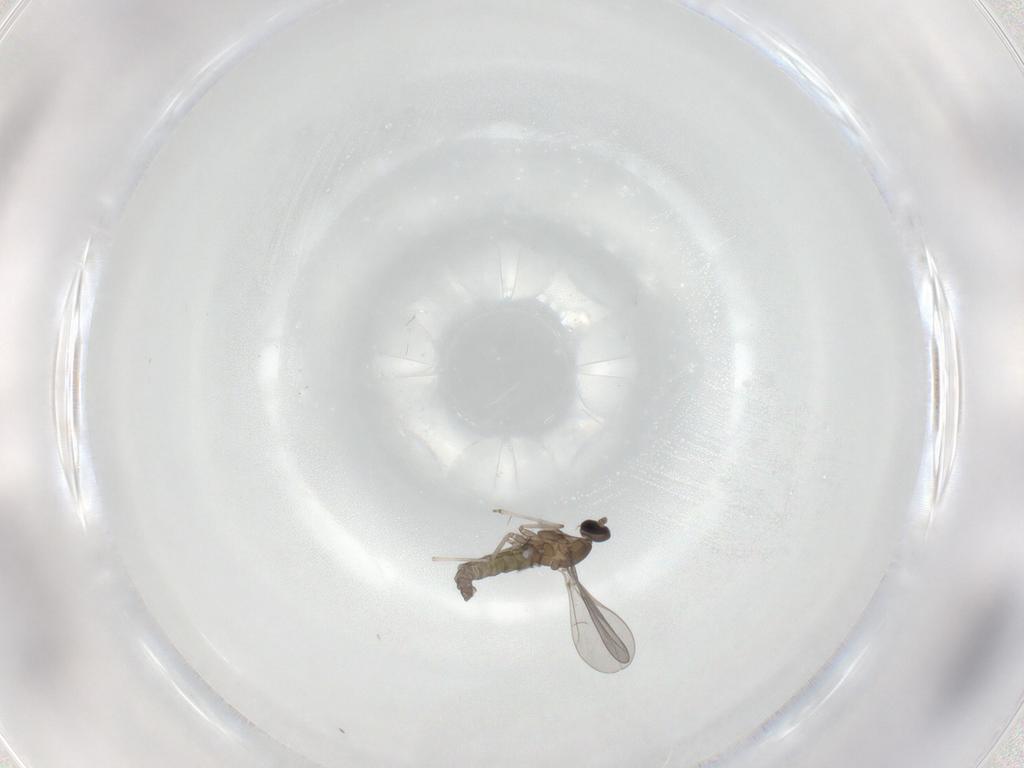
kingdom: Animalia
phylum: Arthropoda
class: Insecta
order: Diptera
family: Cecidomyiidae
